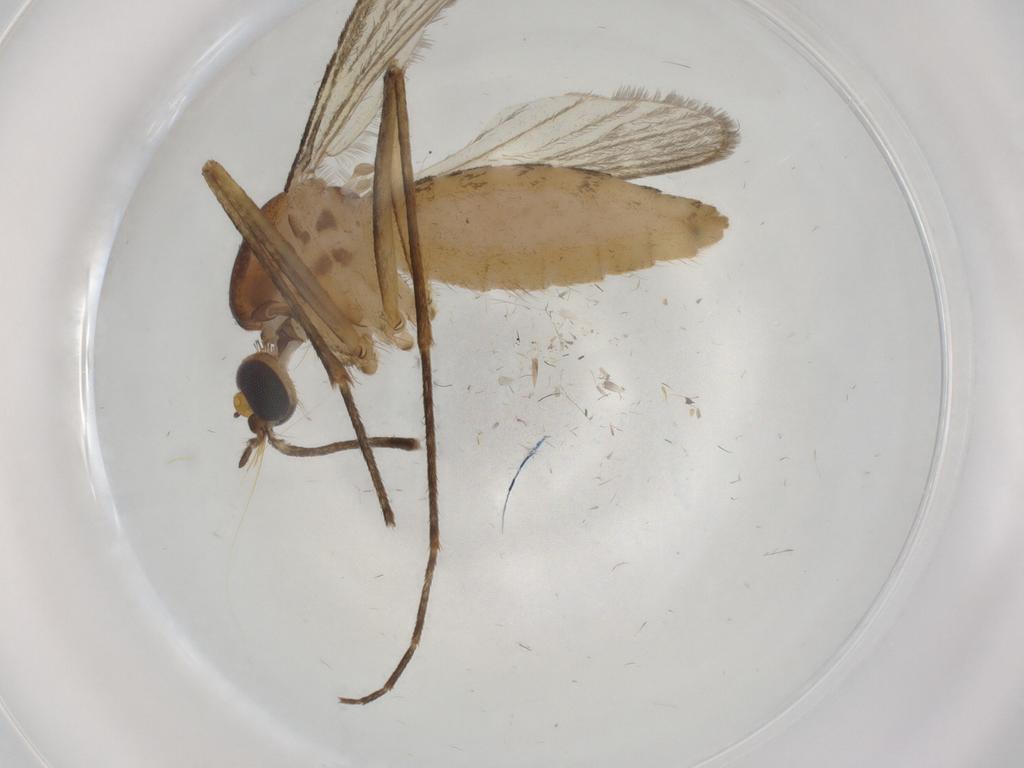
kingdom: Animalia
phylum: Arthropoda
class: Insecta
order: Diptera
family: Culicidae
